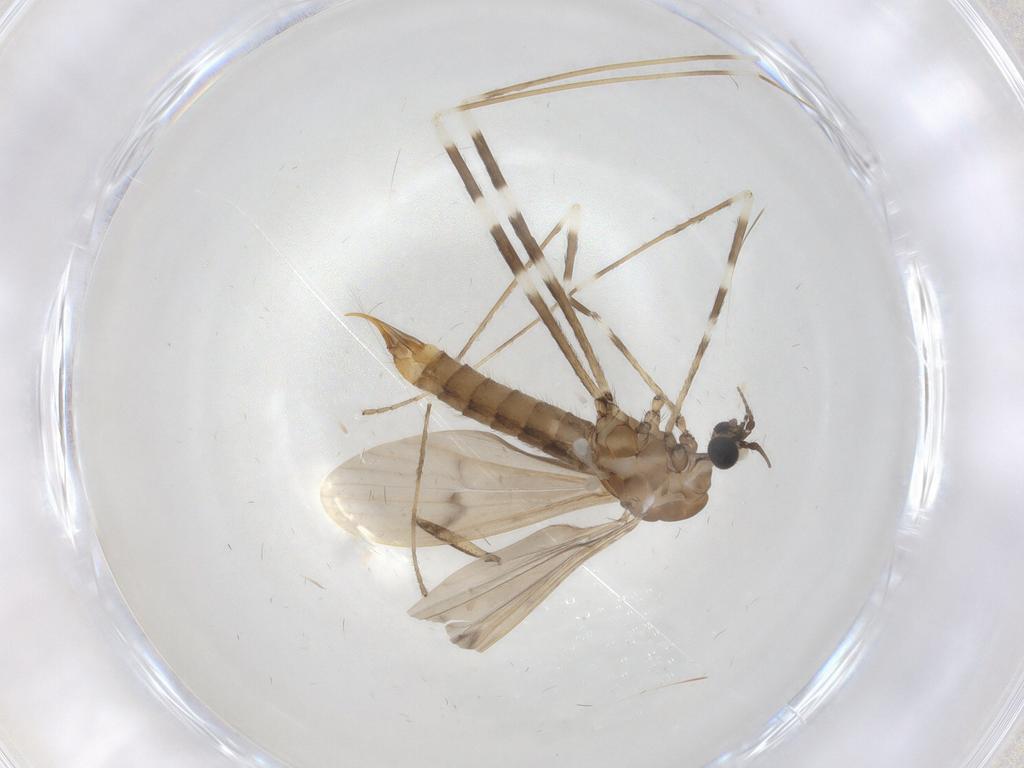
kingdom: Animalia
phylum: Arthropoda
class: Insecta
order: Diptera
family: Limoniidae
